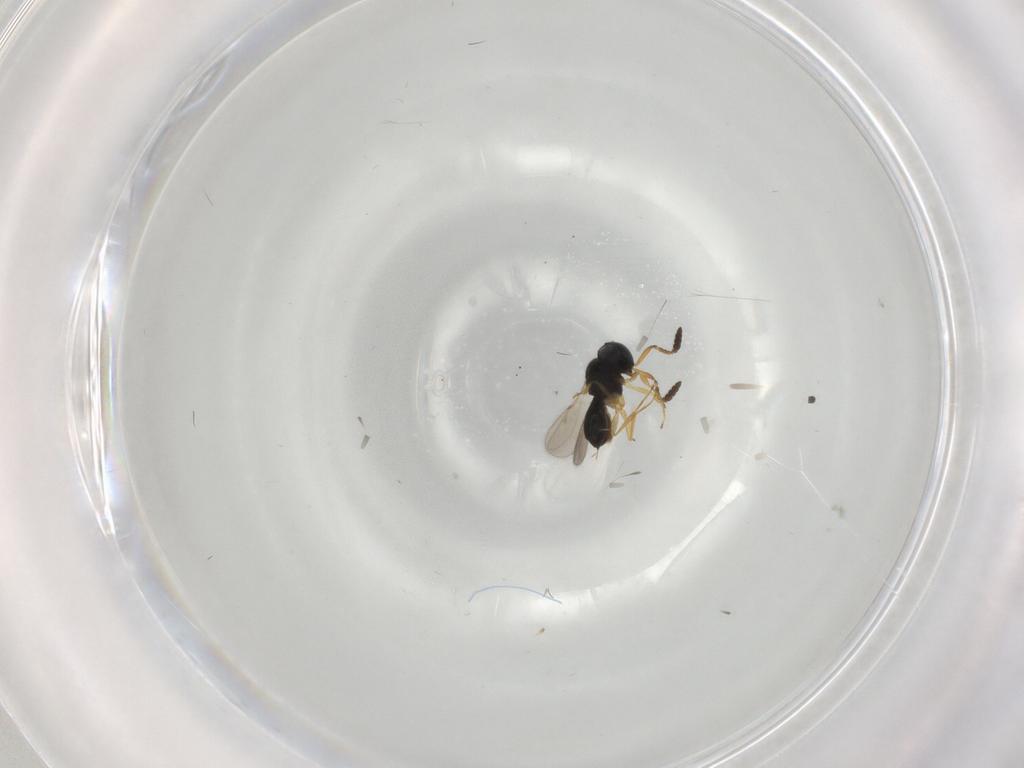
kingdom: Animalia
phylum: Arthropoda
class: Insecta
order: Hymenoptera
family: Scelionidae
